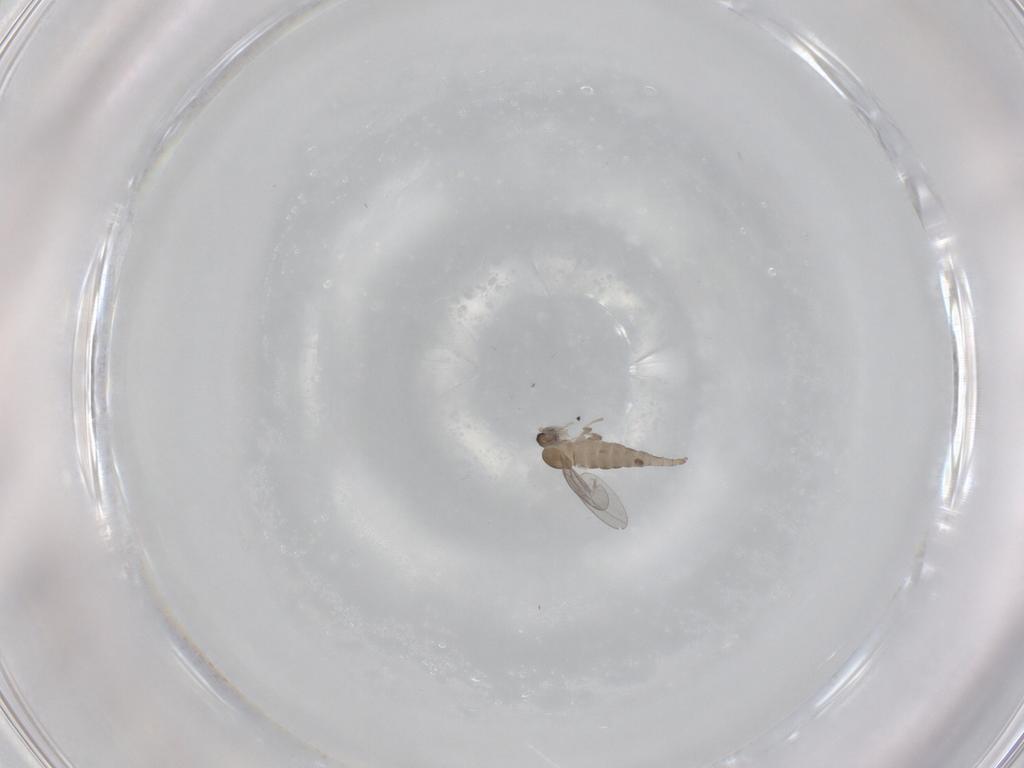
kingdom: Animalia
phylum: Arthropoda
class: Insecta
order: Diptera
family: Cecidomyiidae
